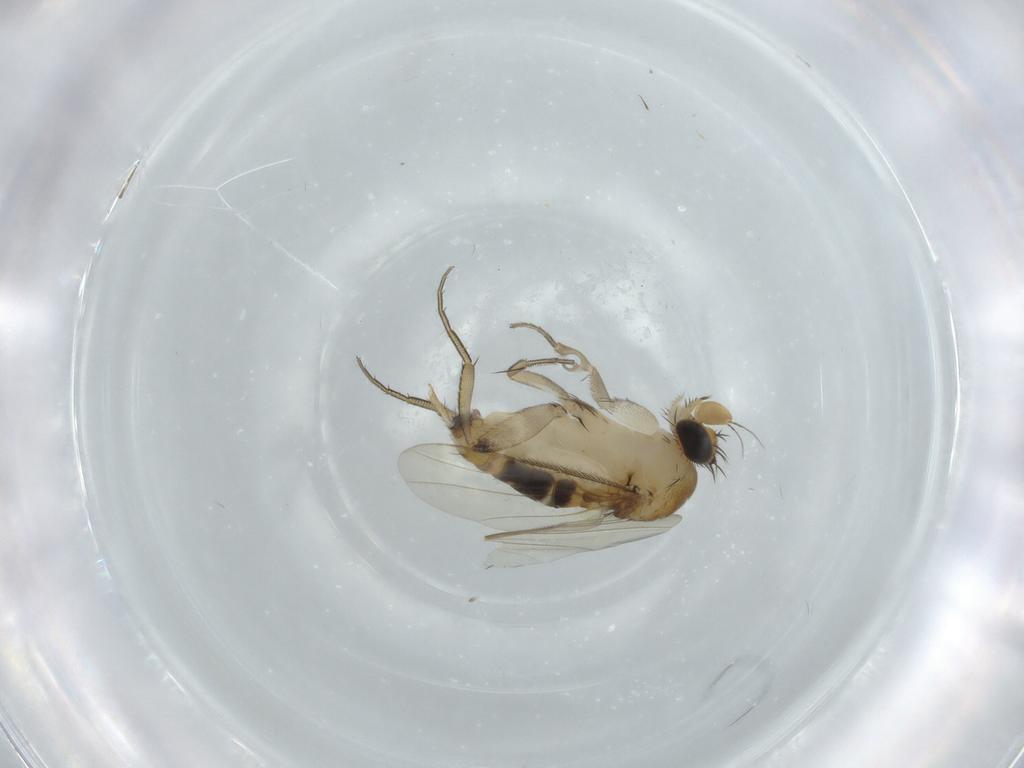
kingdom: Animalia
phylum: Arthropoda
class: Insecta
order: Diptera
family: Phoridae
